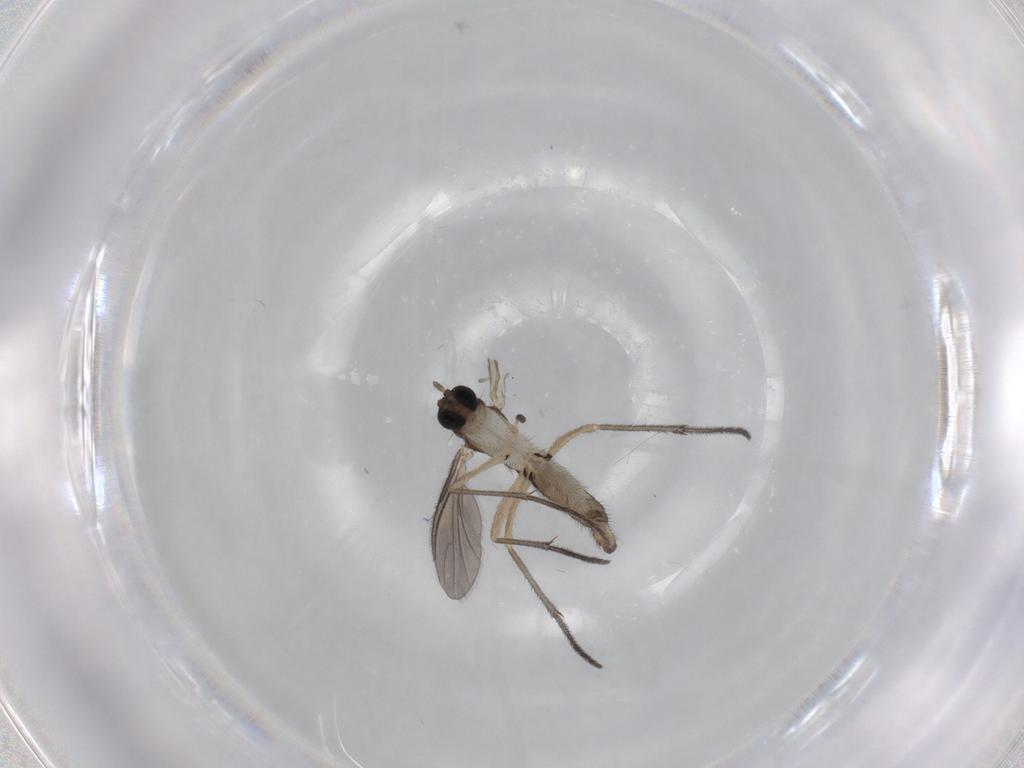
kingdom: Animalia
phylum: Arthropoda
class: Insecta
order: Diptera
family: Sciaridae
